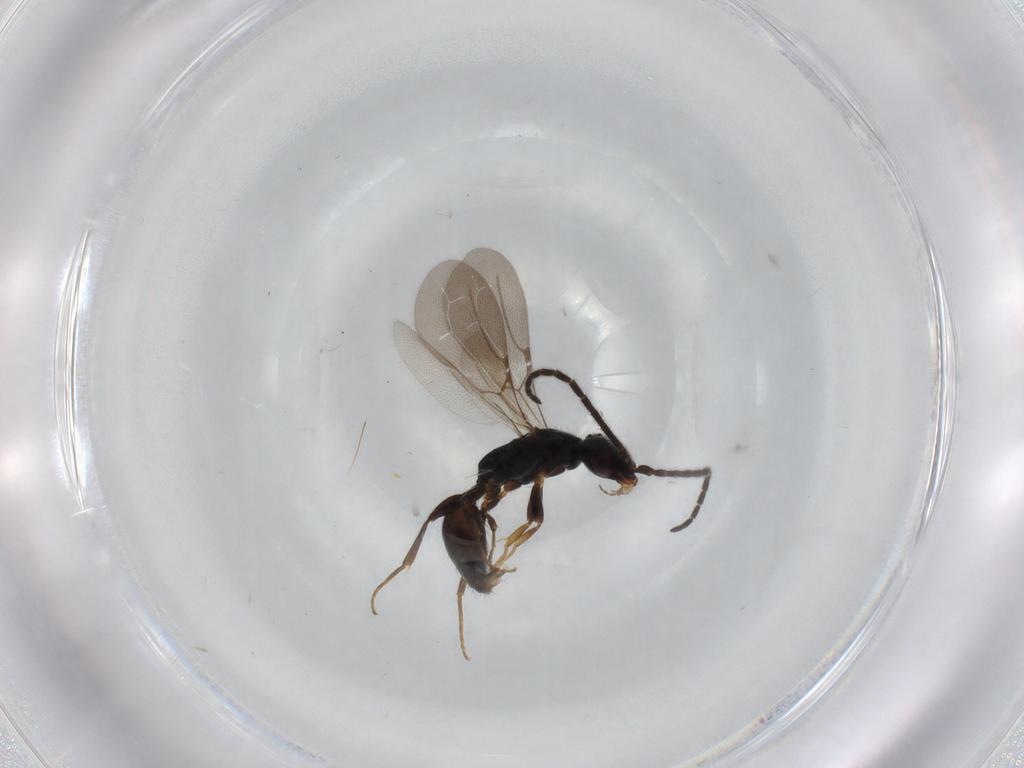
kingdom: Animalia
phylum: Arthropoda
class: Insecta
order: Hymenoptera
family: Bethylidae
